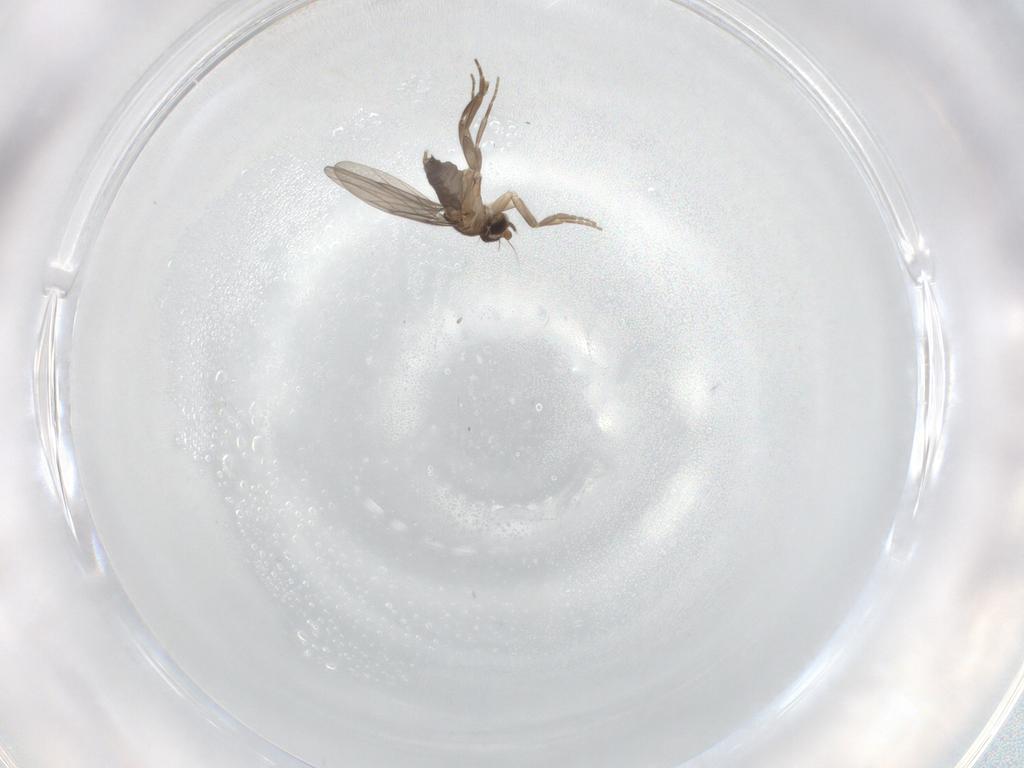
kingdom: Animalia
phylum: Arthropoda
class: Insecta
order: Diptera
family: Cecidomyiidae
